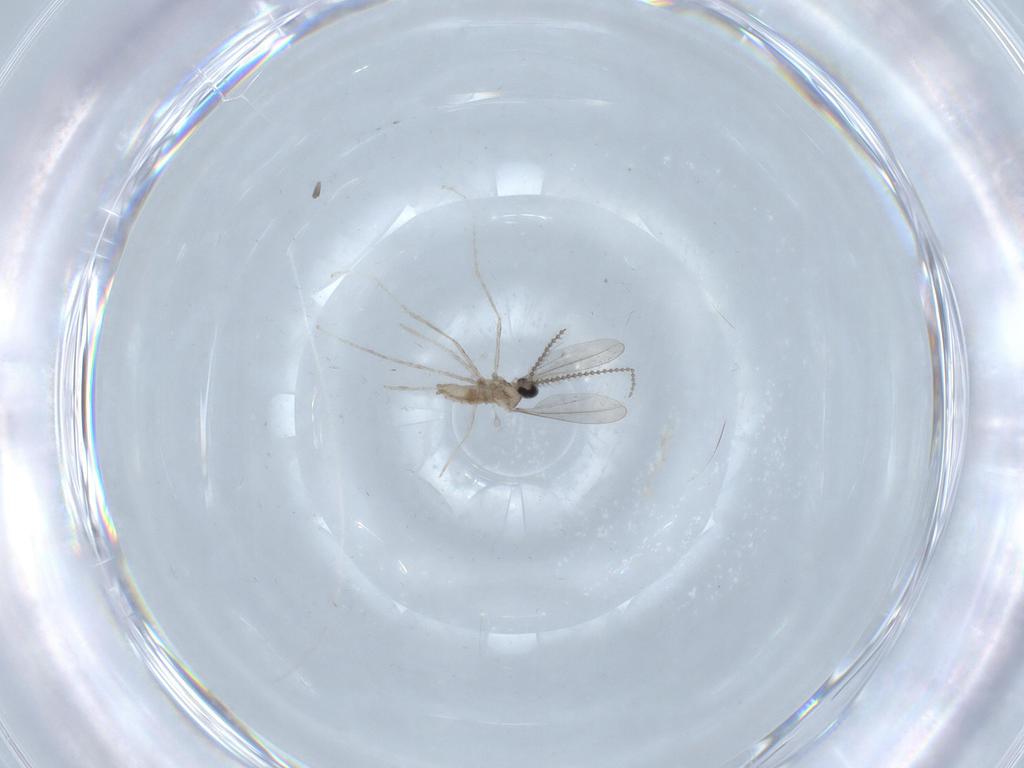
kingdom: Animalia
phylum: Arthropoda
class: Insecta
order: Diptera
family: Cecidomyiidae
